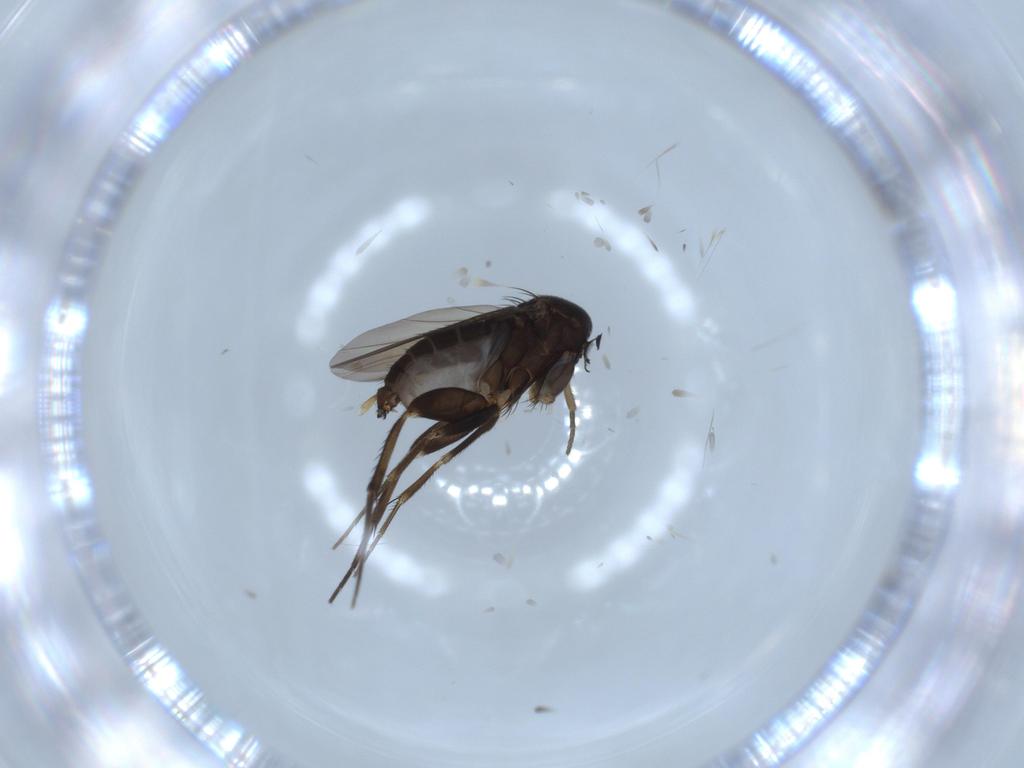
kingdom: Animalia
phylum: Arthropoda
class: Insecta
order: Diptera
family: Phoridae
